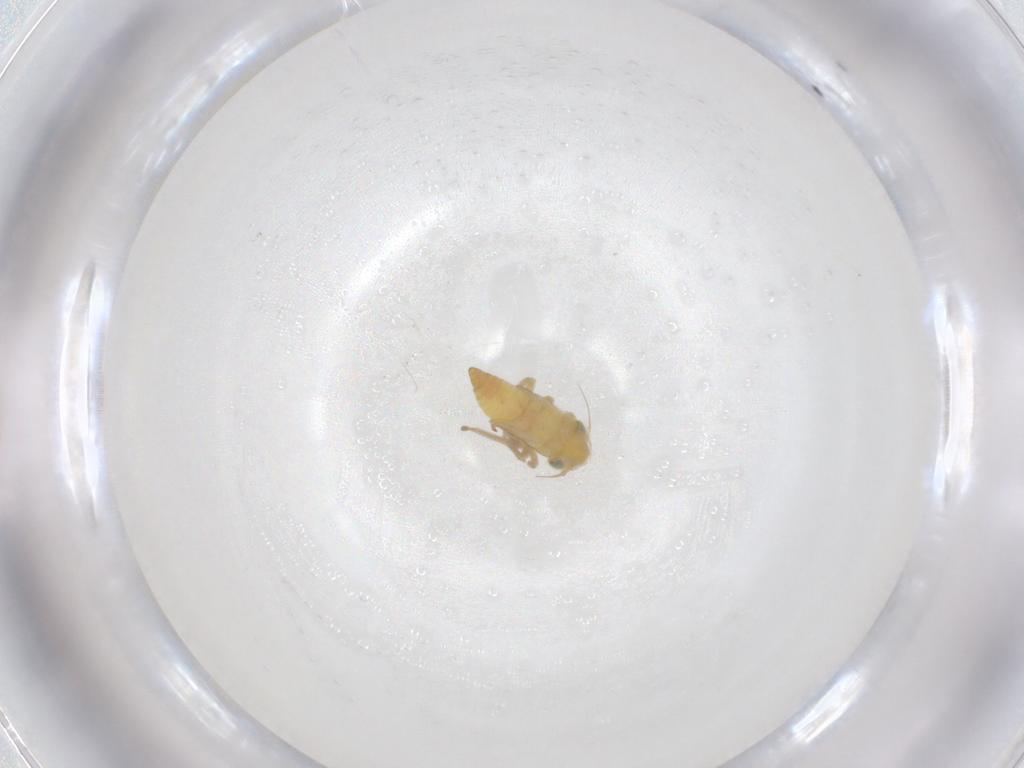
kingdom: Animalia
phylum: Arthropoda
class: Insecta
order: Hemiptera
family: Cicadellidae
